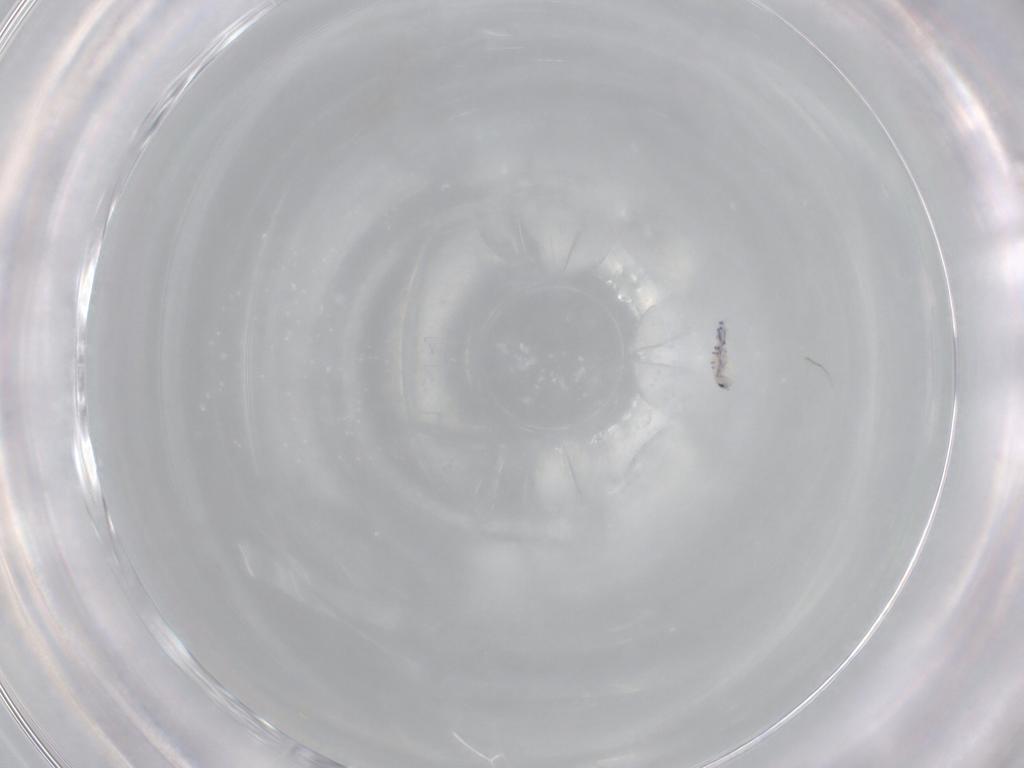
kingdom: Animalia
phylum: Arthropoda
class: Collembola
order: Entomobryomorpha
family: Entomobryidae
